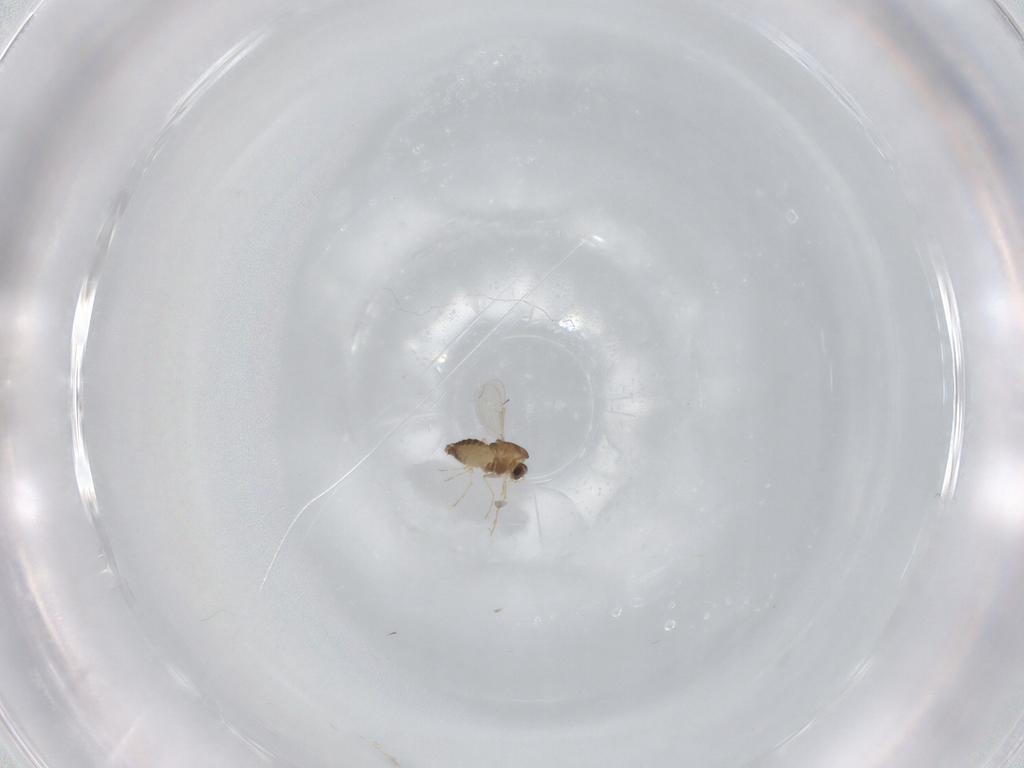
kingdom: Animalia
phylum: Arthropoda
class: Insecta
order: Diptera
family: Chironomidae
